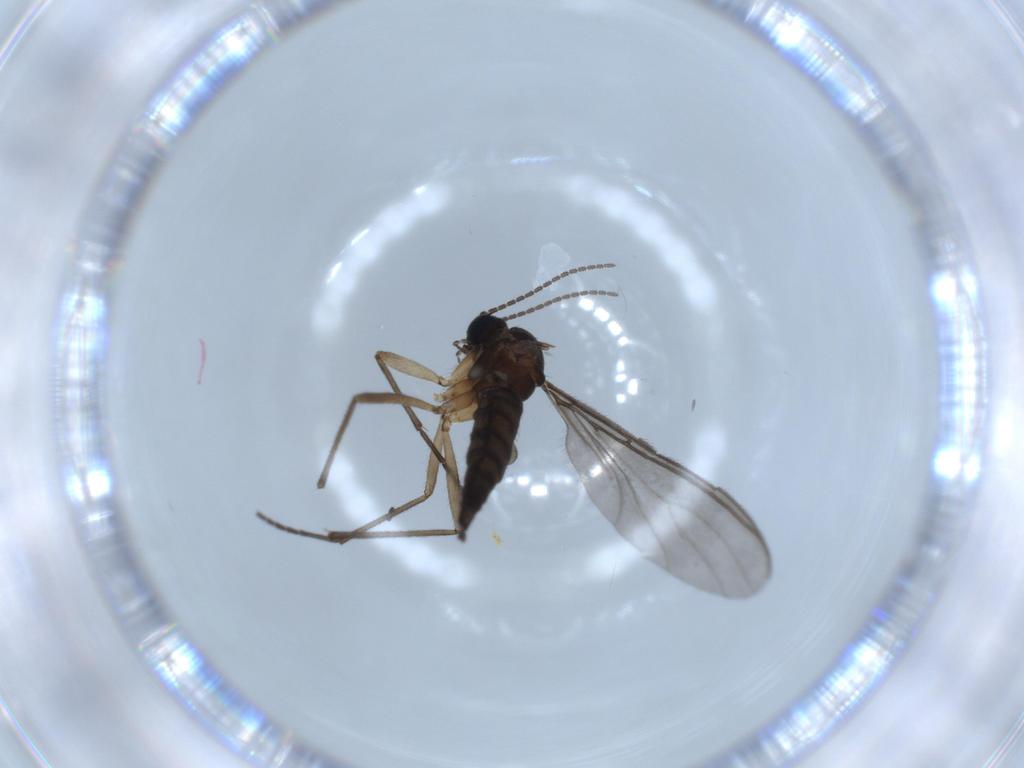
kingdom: Animalia
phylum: Arthropoda
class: Insecta
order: Diptera
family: Sciaridae
